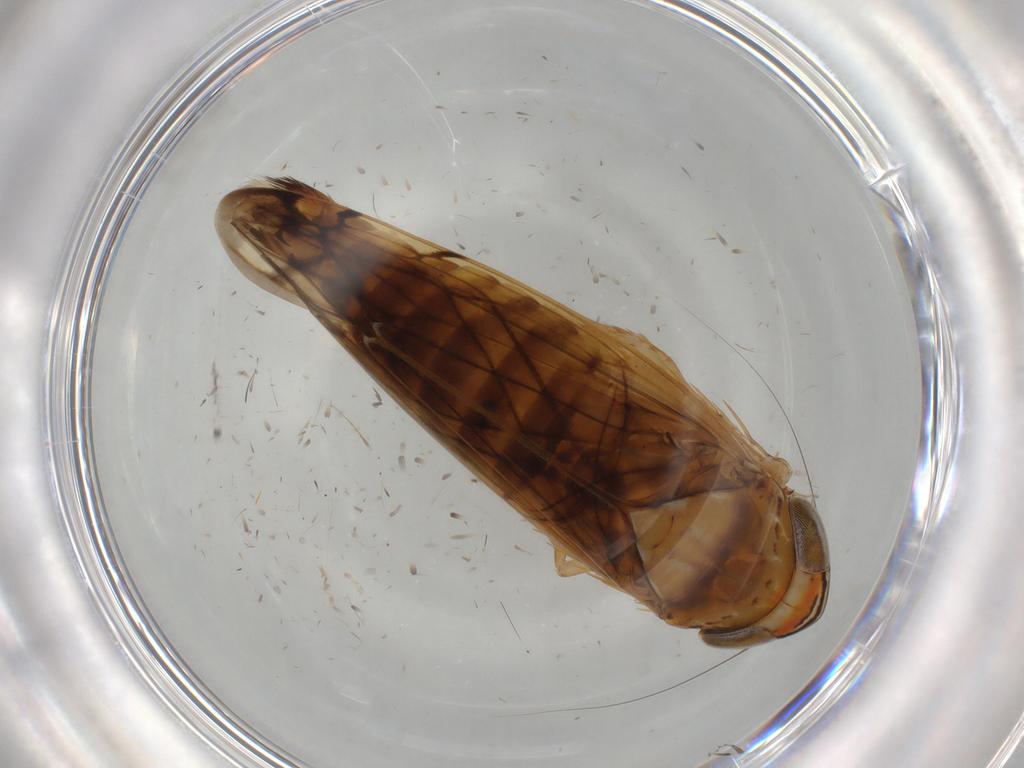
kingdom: Animalia
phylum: Arthropoda
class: Insecta
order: Hemiptera
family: Cicadellidae
